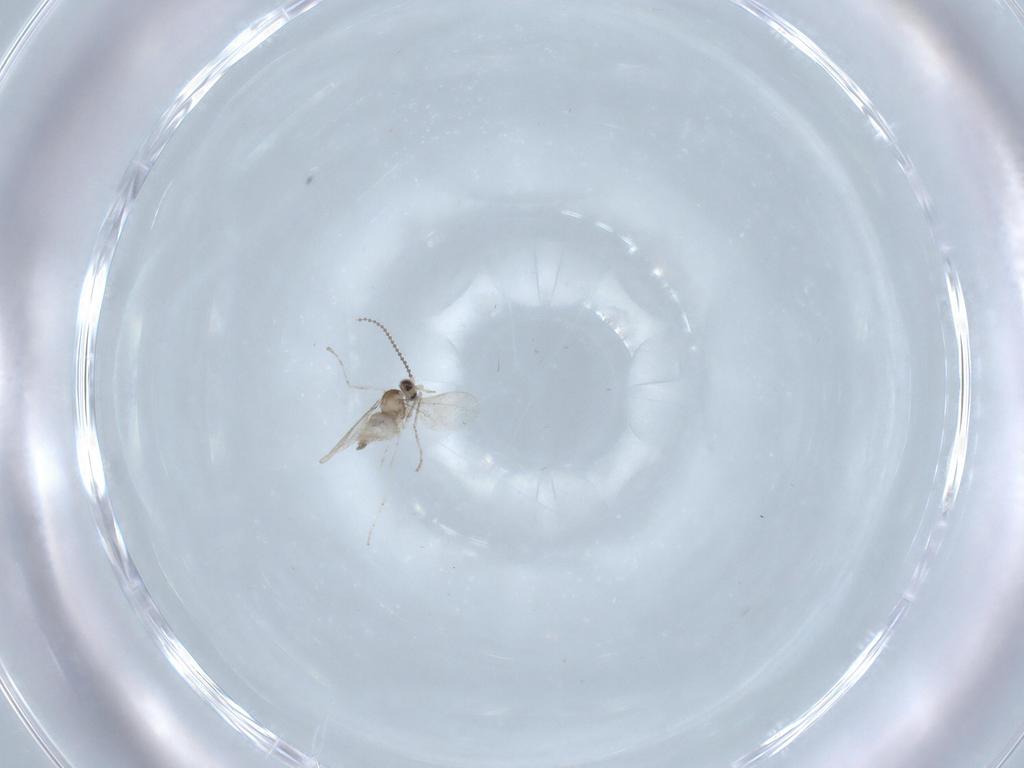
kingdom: Animalia
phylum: Arthropoda
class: Insecta
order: Diptera
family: Cecidomyiidae
